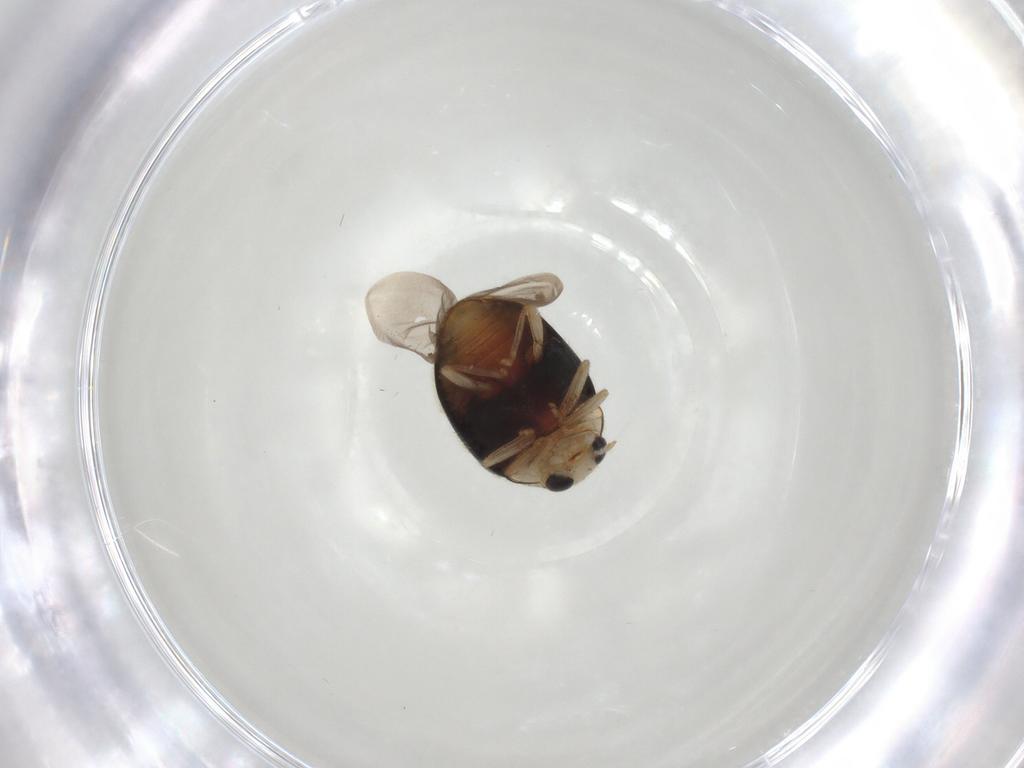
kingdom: Animalia
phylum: Arthropoda
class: Insecta
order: Coleoptera
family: Coccinellidae
